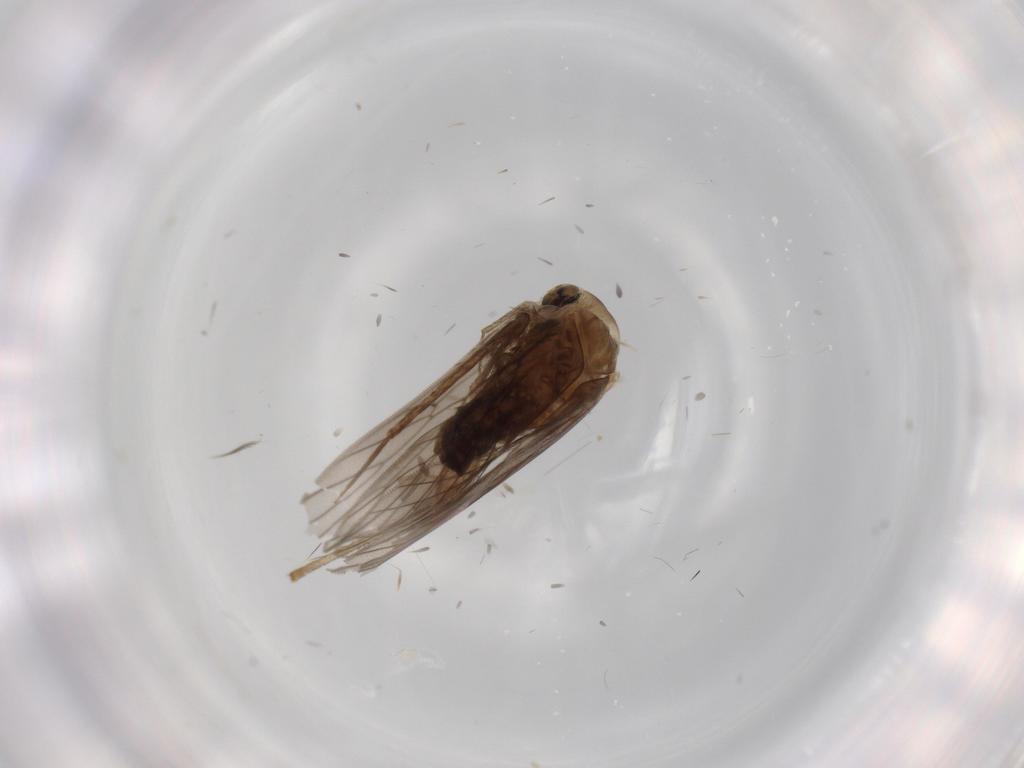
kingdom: Animalia
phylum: Arthropoda
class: Insecta
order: Psocodea
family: Lepidopsocidae
